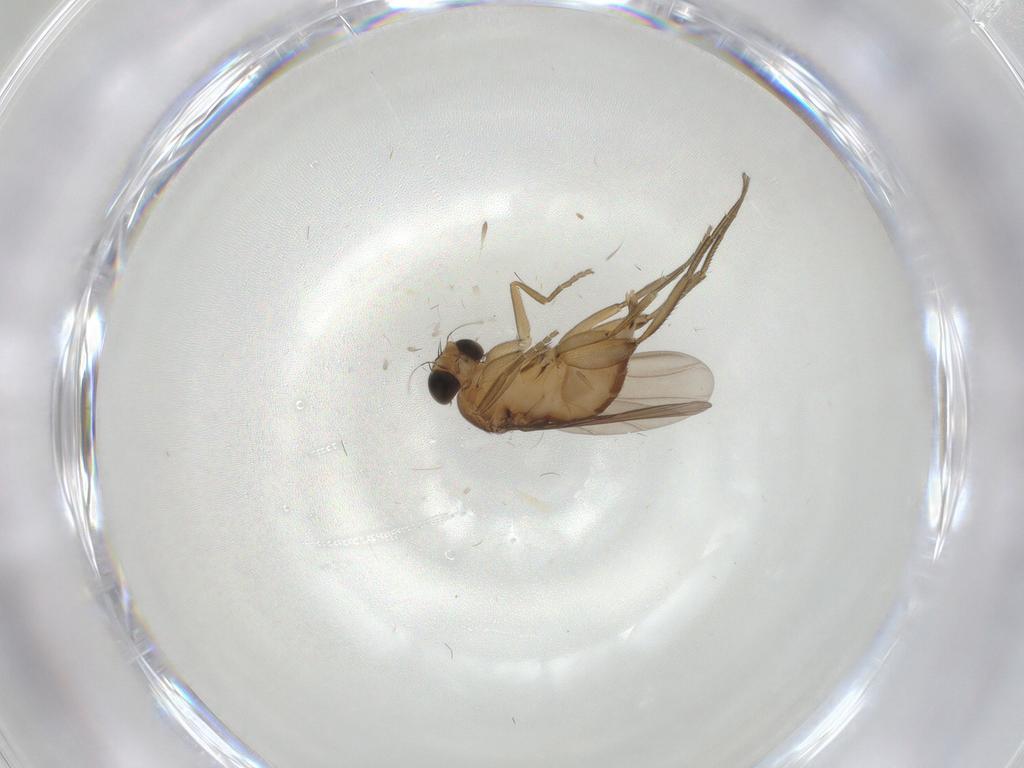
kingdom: Animalia
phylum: Arthropoda
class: Insecta
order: Diptera
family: Phoridae
